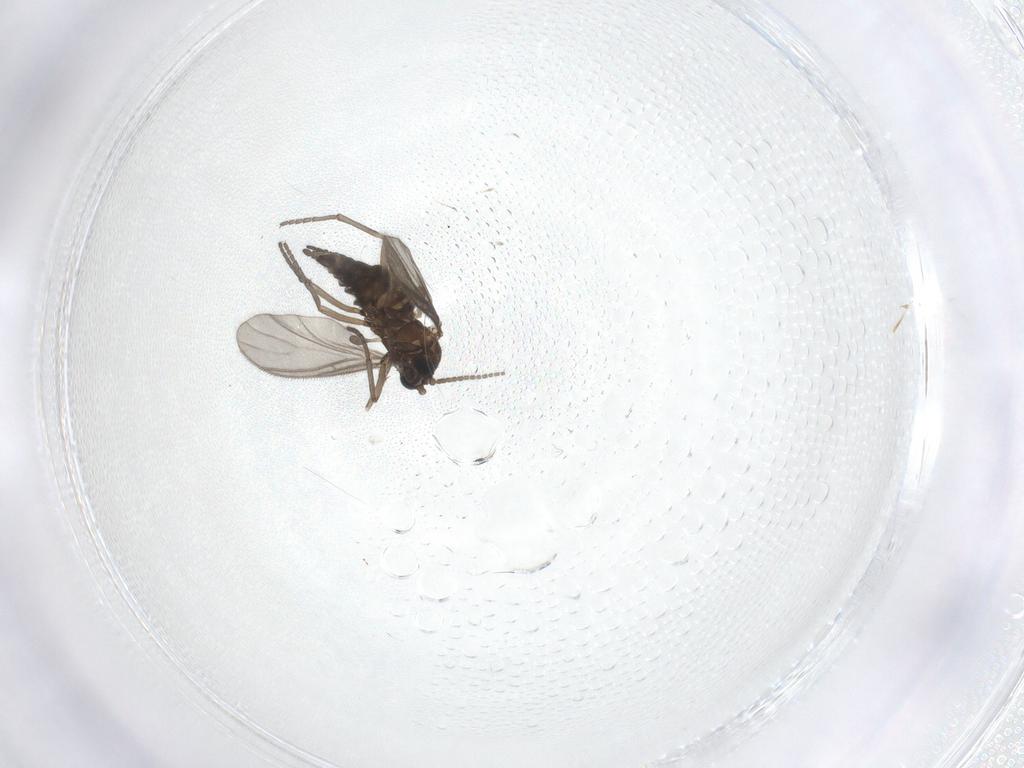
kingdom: Animalia
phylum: Arthropoda
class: Insecta
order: Diptera
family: Sciaridae
